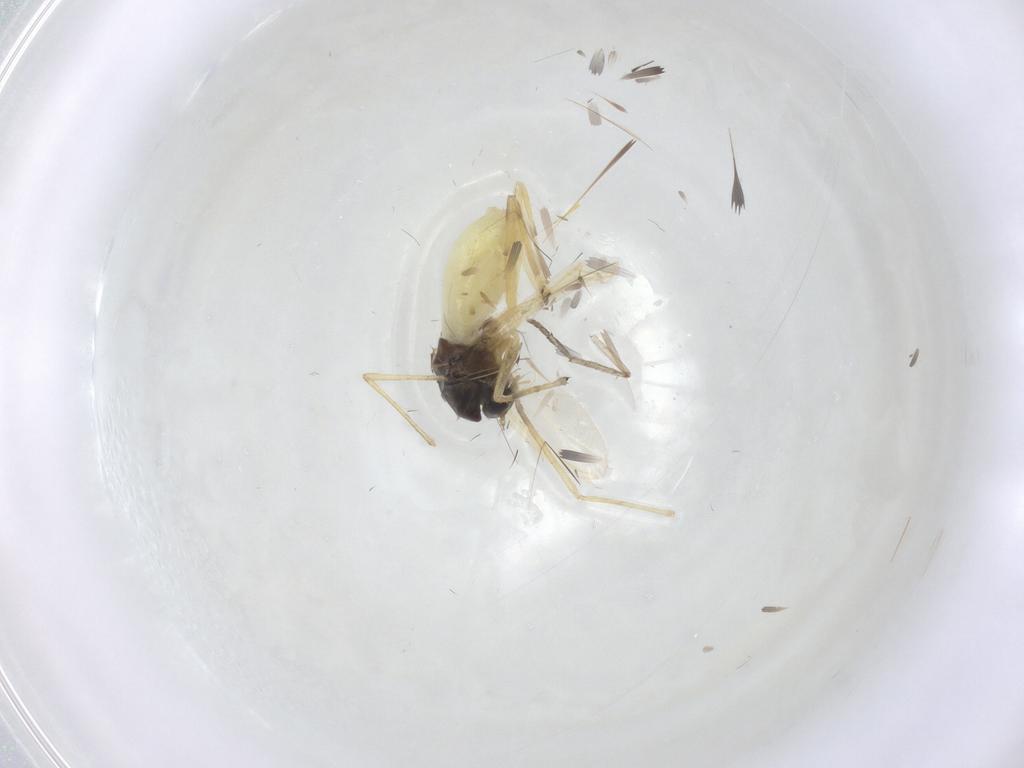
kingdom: Animalia
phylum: Arthropoda
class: Insecta
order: Diptera
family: Chironomidae
